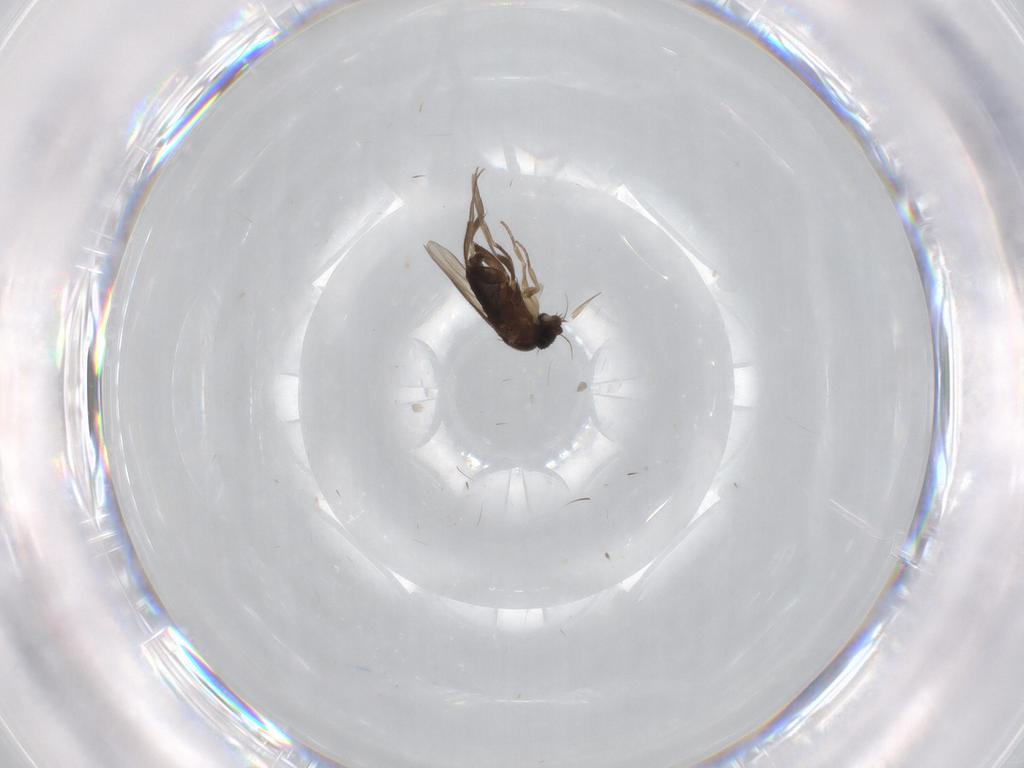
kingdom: Animalia
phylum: Arthropoda
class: Insecta
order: Diptera
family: Phoridae
